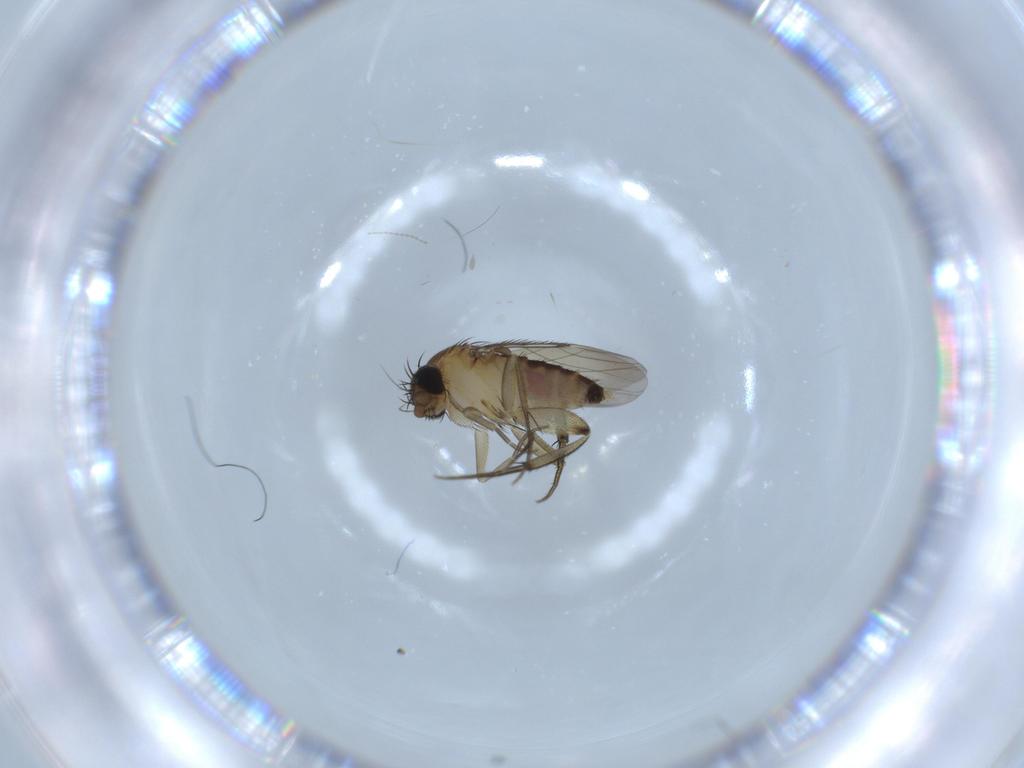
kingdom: Animalia
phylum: Arthropoda
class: Insecta
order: Diptera
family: Phoridae
